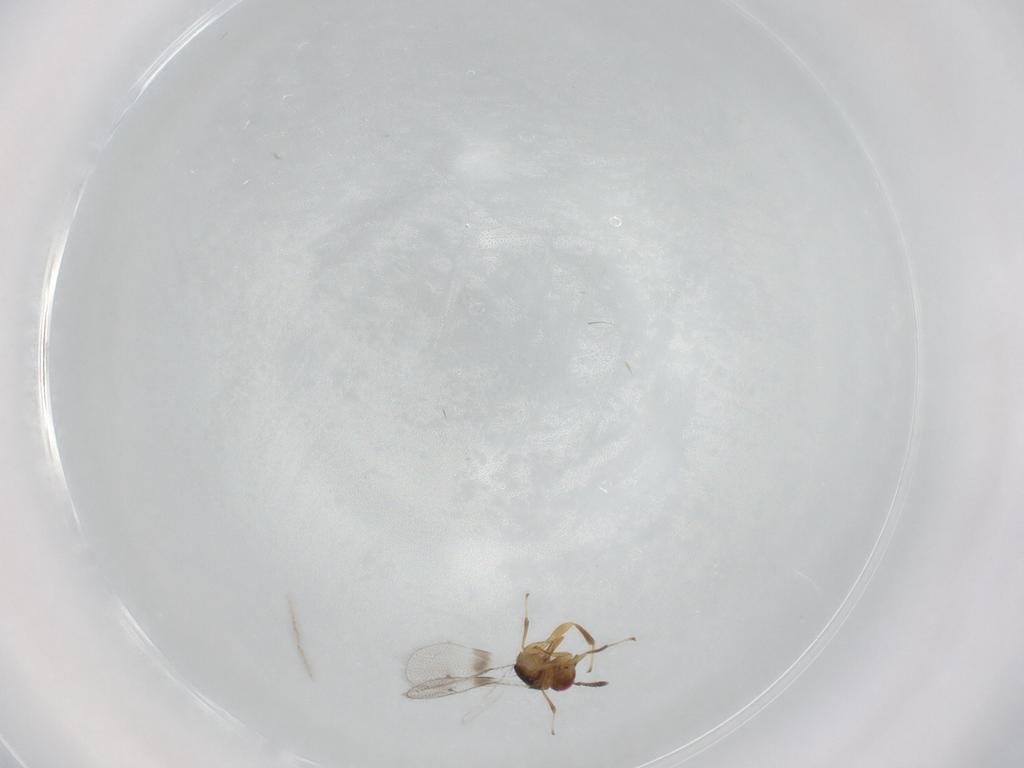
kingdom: Animalia
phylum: Arthropoda
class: Insecta
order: Hymenoptera
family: Torymidae
